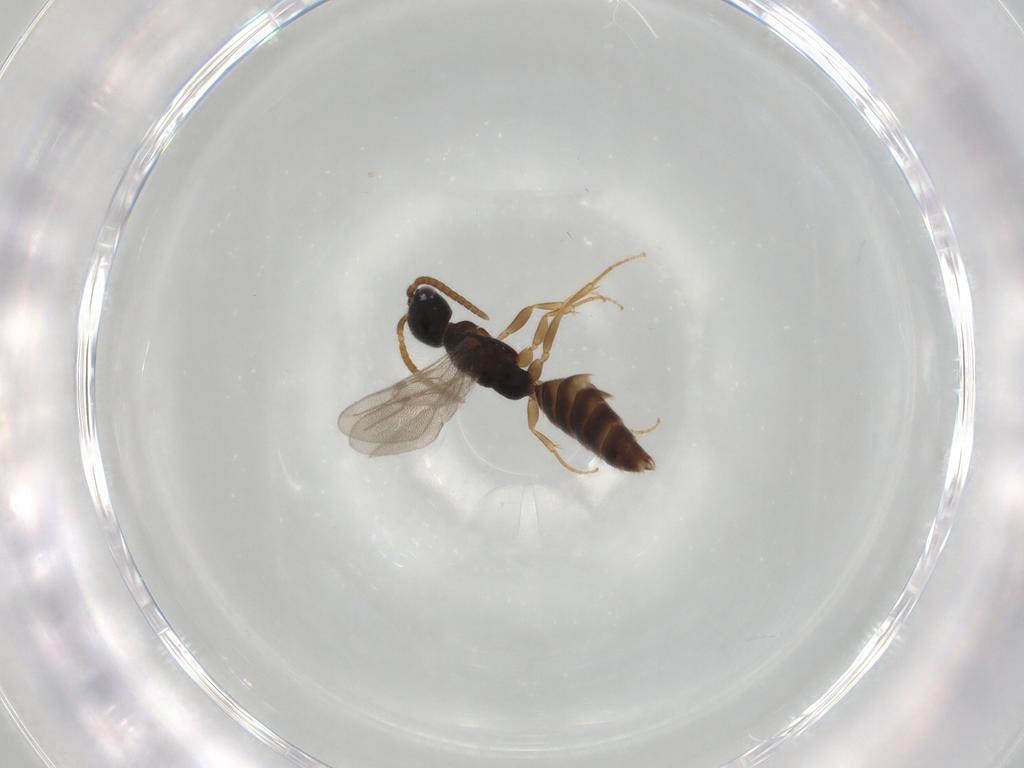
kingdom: Animalia
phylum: Arthropoda
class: Insecta
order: Hymenoptera
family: Bethylidae
